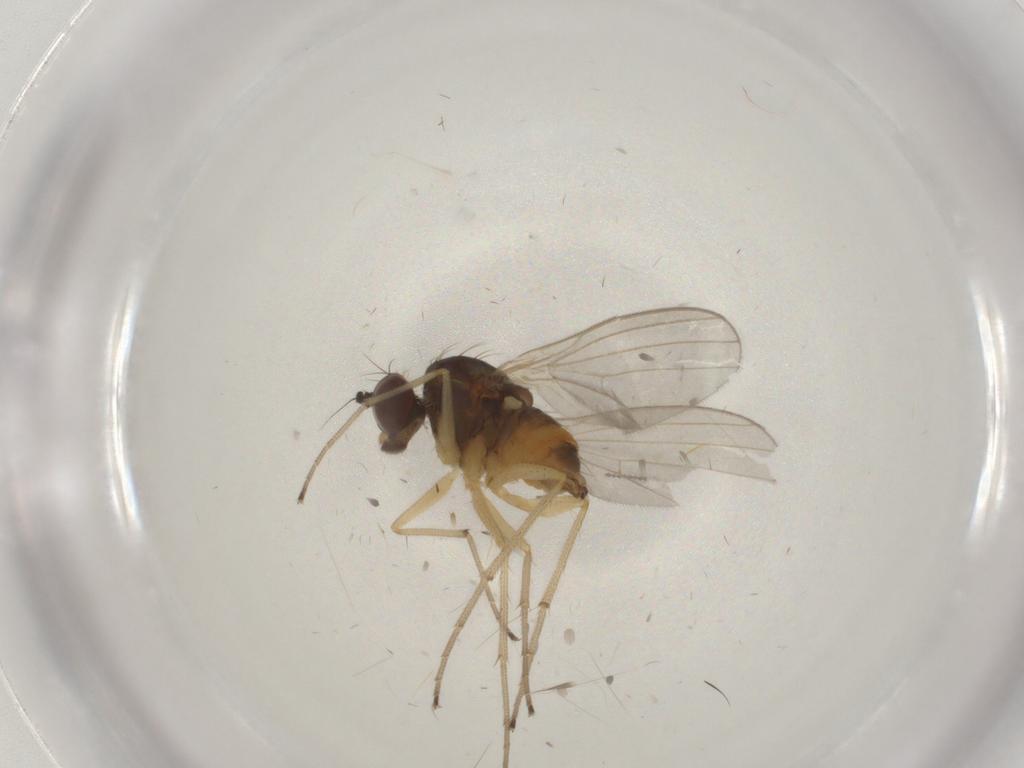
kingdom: Animalia
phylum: Arthropoda
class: Insecta
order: Diptera
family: Dolichopodidae
